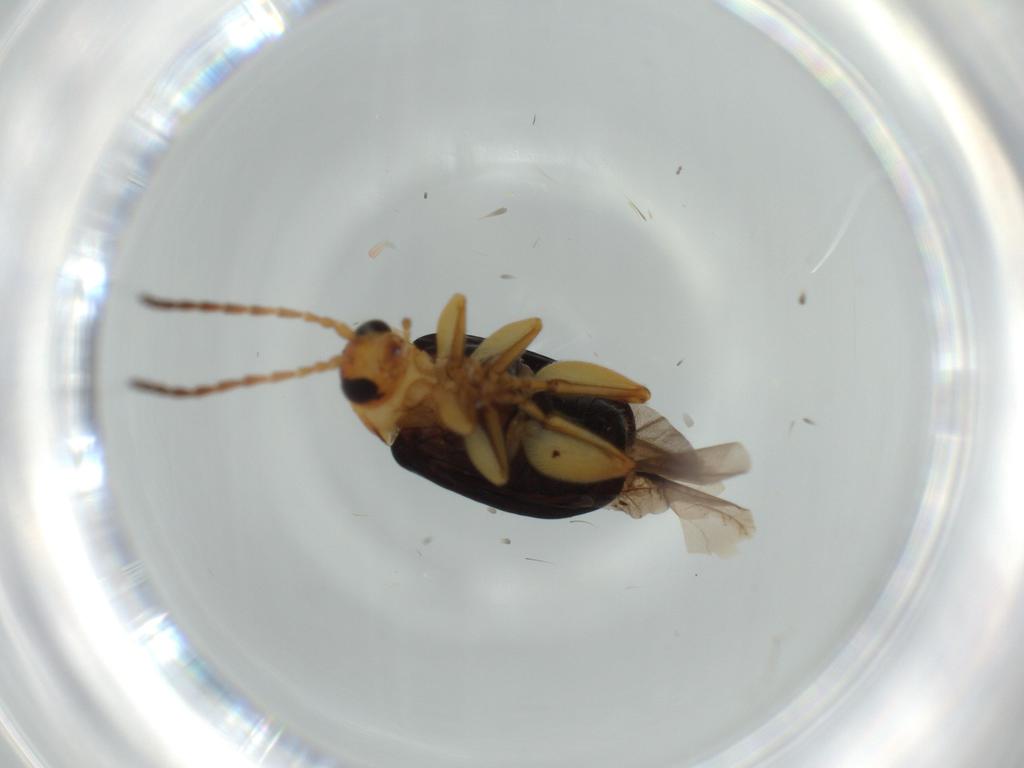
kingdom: Animalia
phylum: Arthropoda
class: Insecta
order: Coleoptera
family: Chrysomelidae
